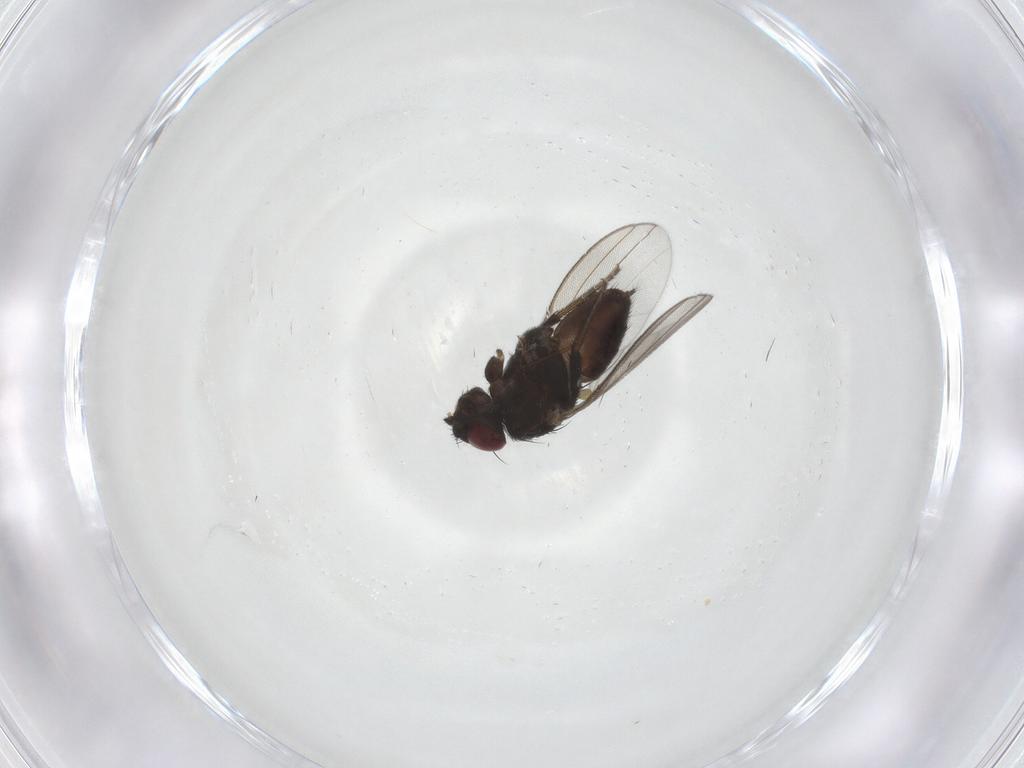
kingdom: Animalia
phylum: Arthropoda
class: Insecta
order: Diptera
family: Milichiidae
